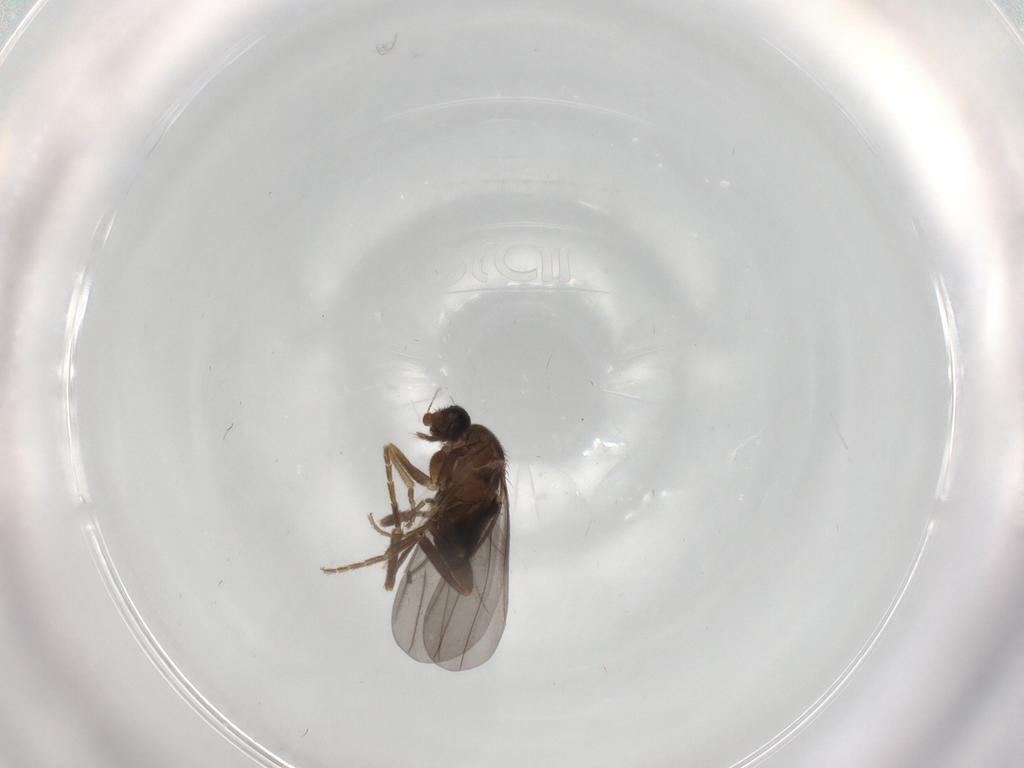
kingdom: Animalia
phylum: Arthropoda
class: Insecta
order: Diptera
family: Phoridae
